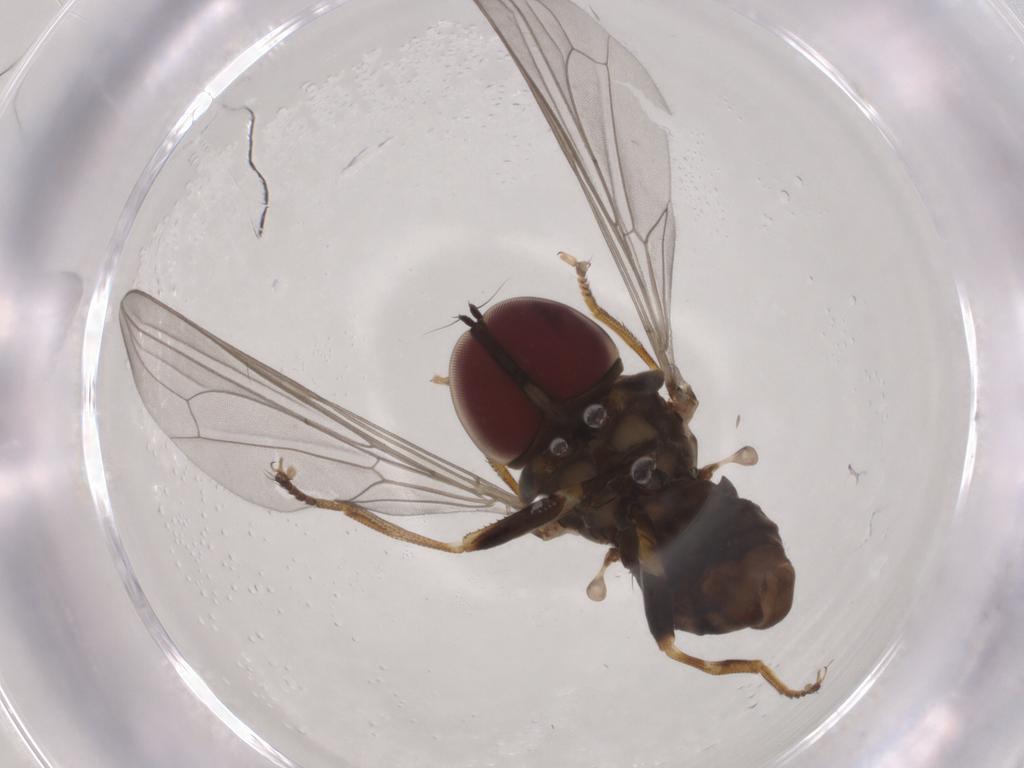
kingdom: Animalia
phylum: Arthropoda
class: Insecta
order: Diptera
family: Pipunculidae
